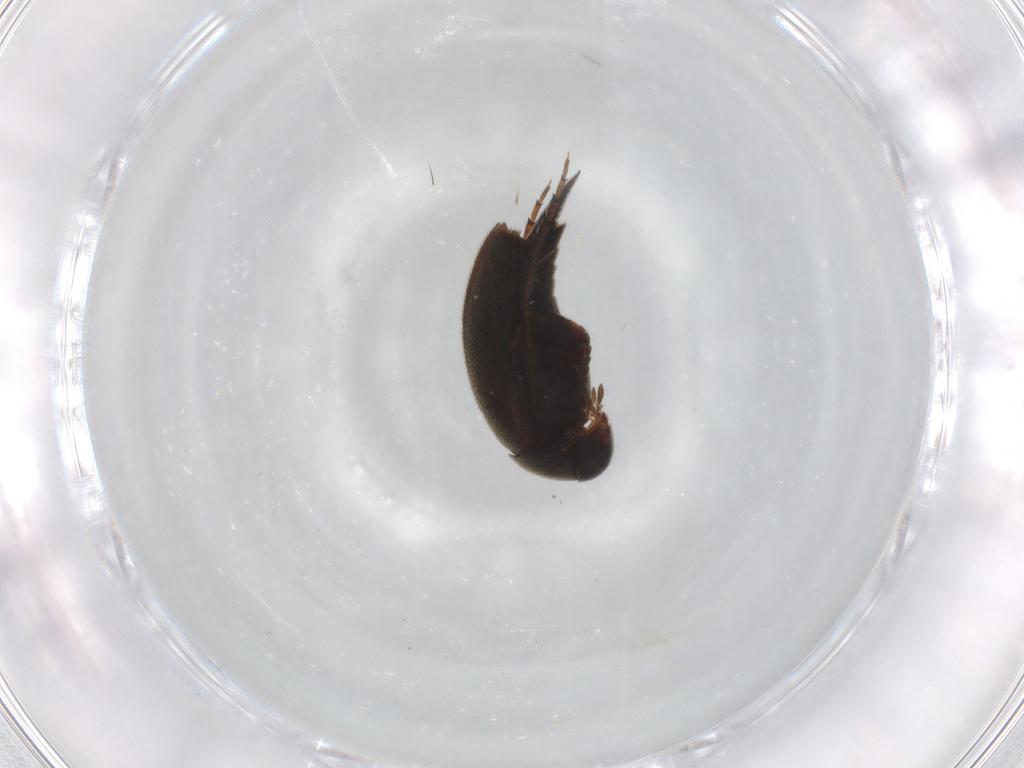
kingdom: Animalia
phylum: Arthropoda
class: Insecta
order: Coleoptera
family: Mordellidae
